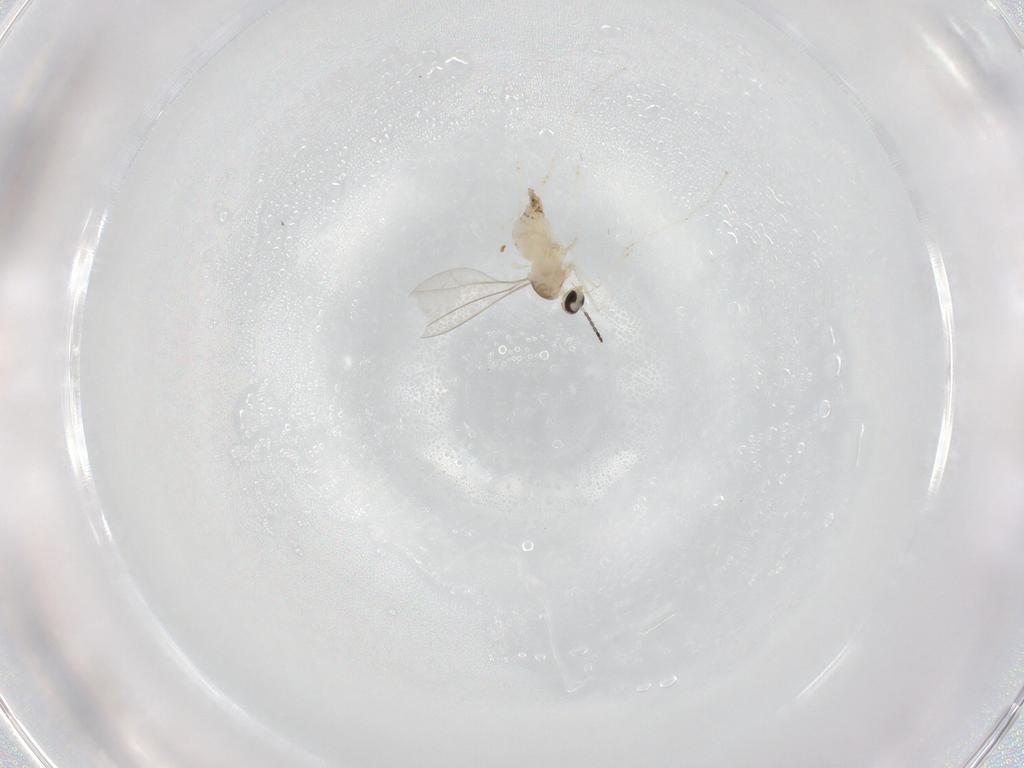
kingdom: Animalia
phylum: Arthropoda
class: Insecta
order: Diptera
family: Cecidomyiidae
